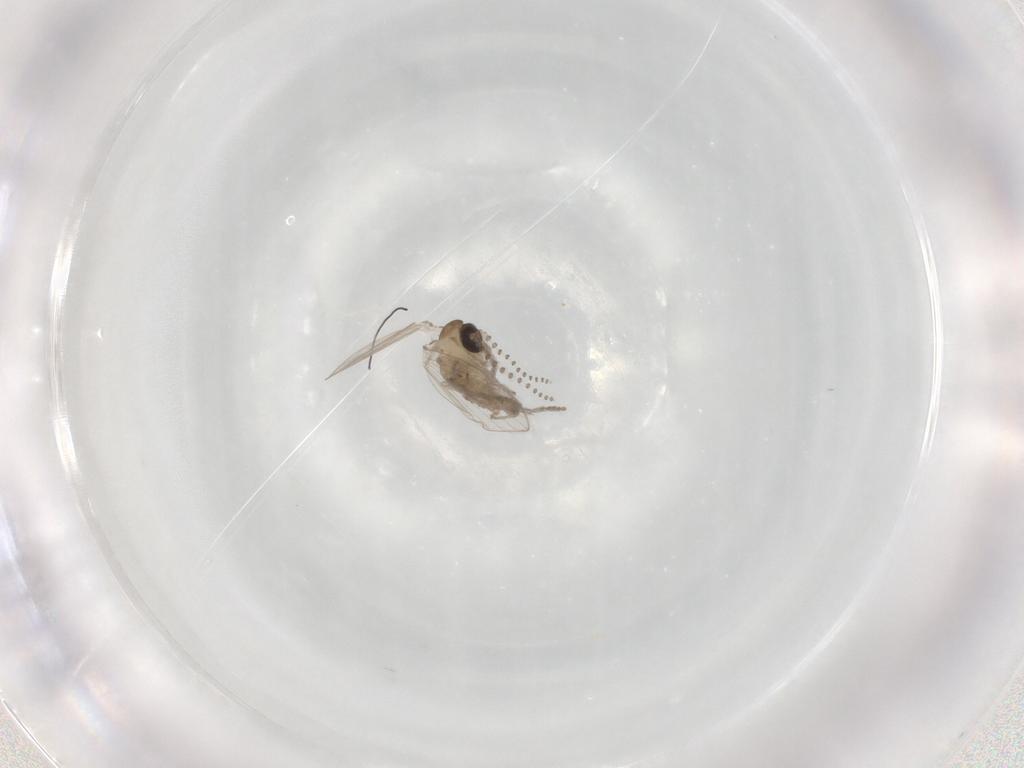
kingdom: Animalia
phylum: Arthropoda
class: Insecta
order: Diptera
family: Psychodidae
